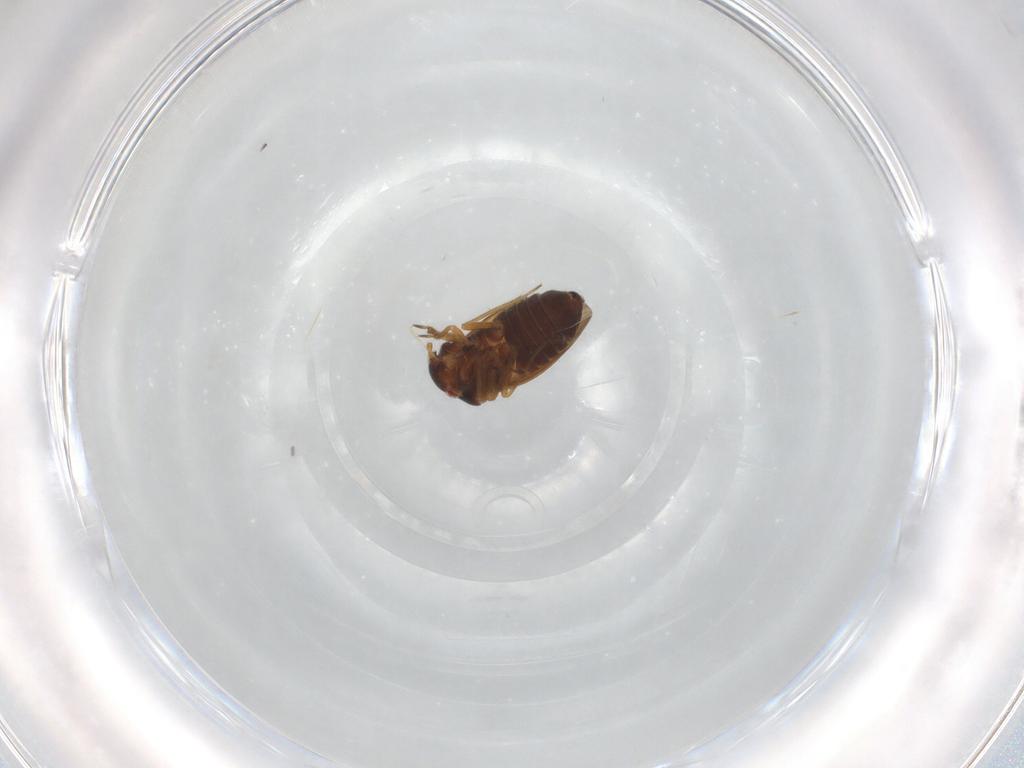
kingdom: Animalia
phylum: Arthropoda
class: Insecta
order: Hemiptera
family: Schizopteridae
